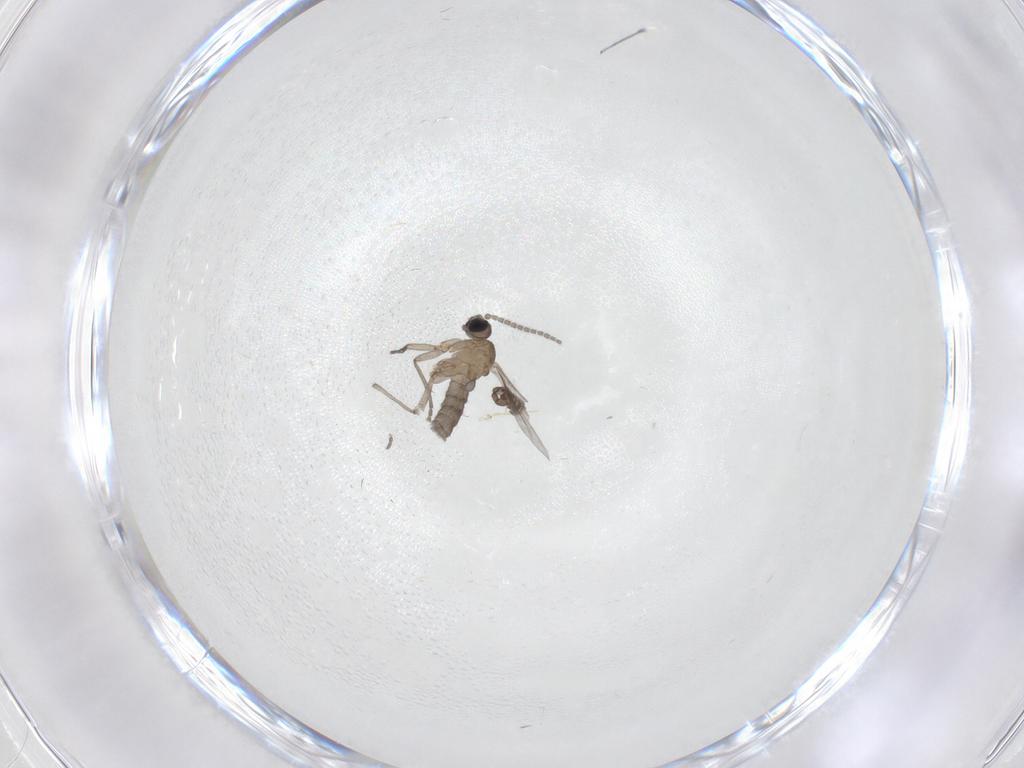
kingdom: Animalia
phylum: Arthropoda
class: Insecta
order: Diptera
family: Sciaridae
